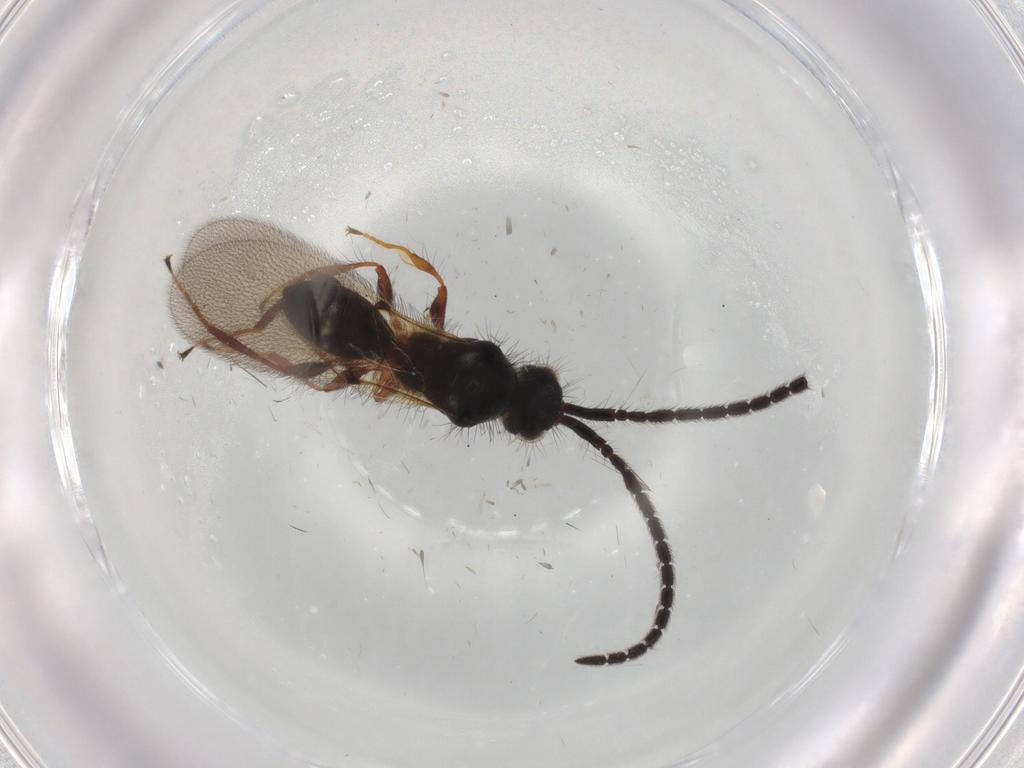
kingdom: Animalia
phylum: Arthropoda
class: Insecta
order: Hymenoptera
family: Diapriidae
